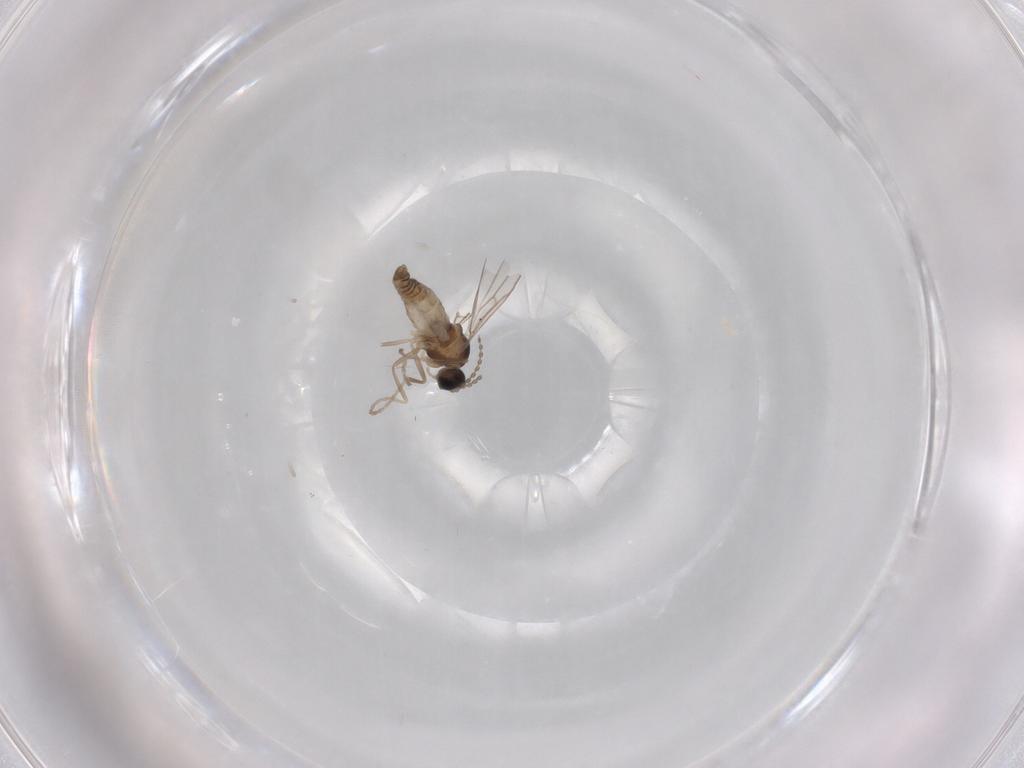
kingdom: Animalia
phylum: Arthropoda
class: Insecta
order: Diptera
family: Cecidomyiidae
